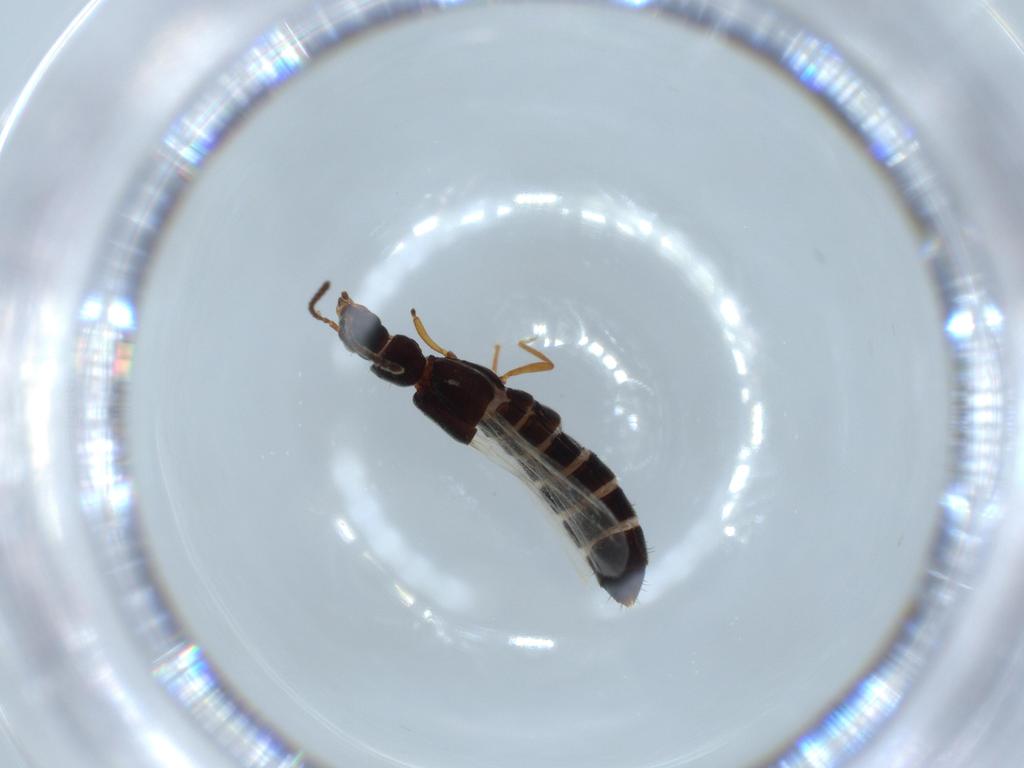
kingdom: Animalia
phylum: Arthropoda
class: Insecta
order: Coleoptera
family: Staphylinidae
